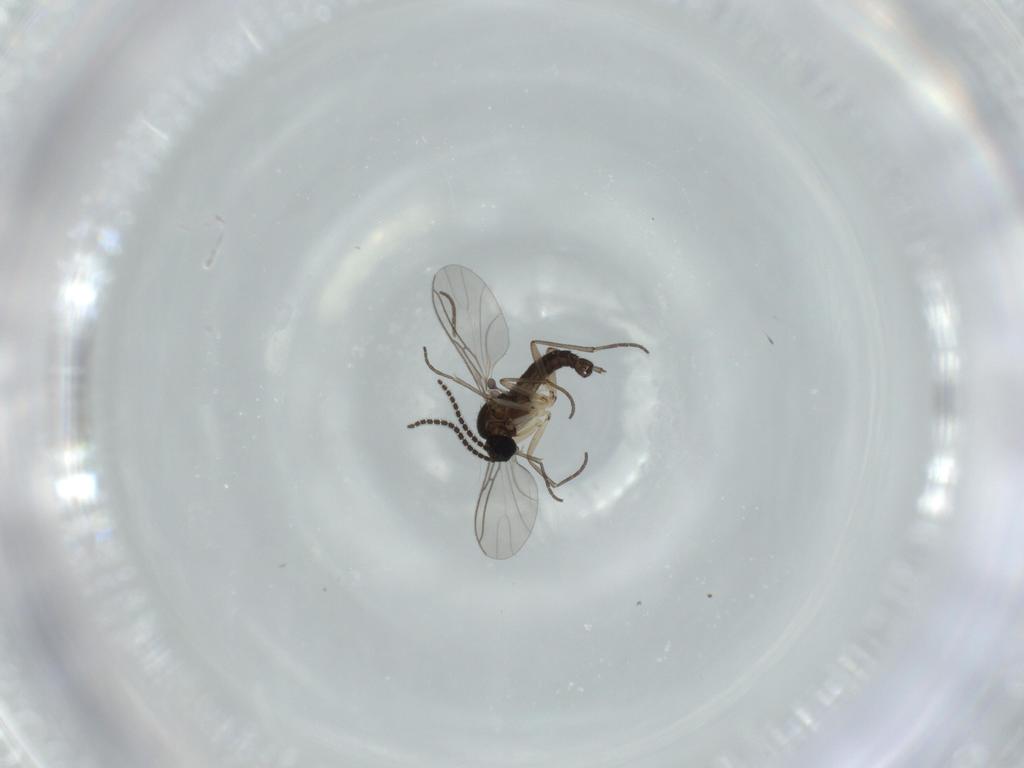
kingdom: Animalia
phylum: Arthropoda
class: Insecta
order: Diptera
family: Sciaridae
